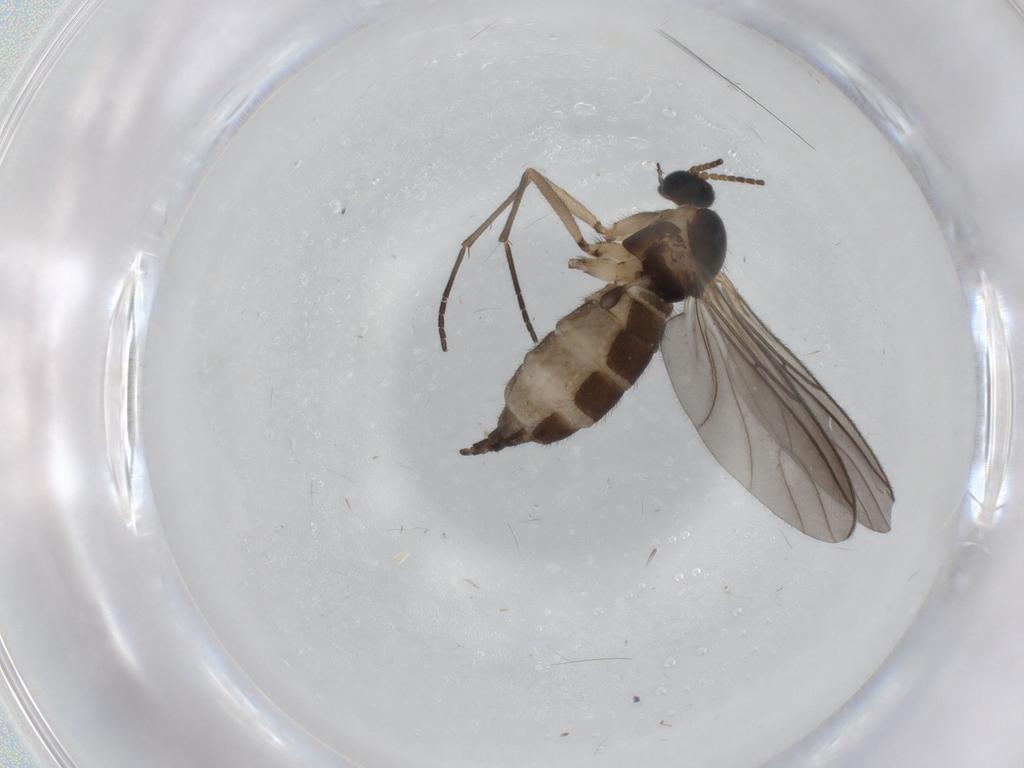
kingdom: Animalia
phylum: Arthropoda
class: Insecta
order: Diptera
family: Sciaridae
